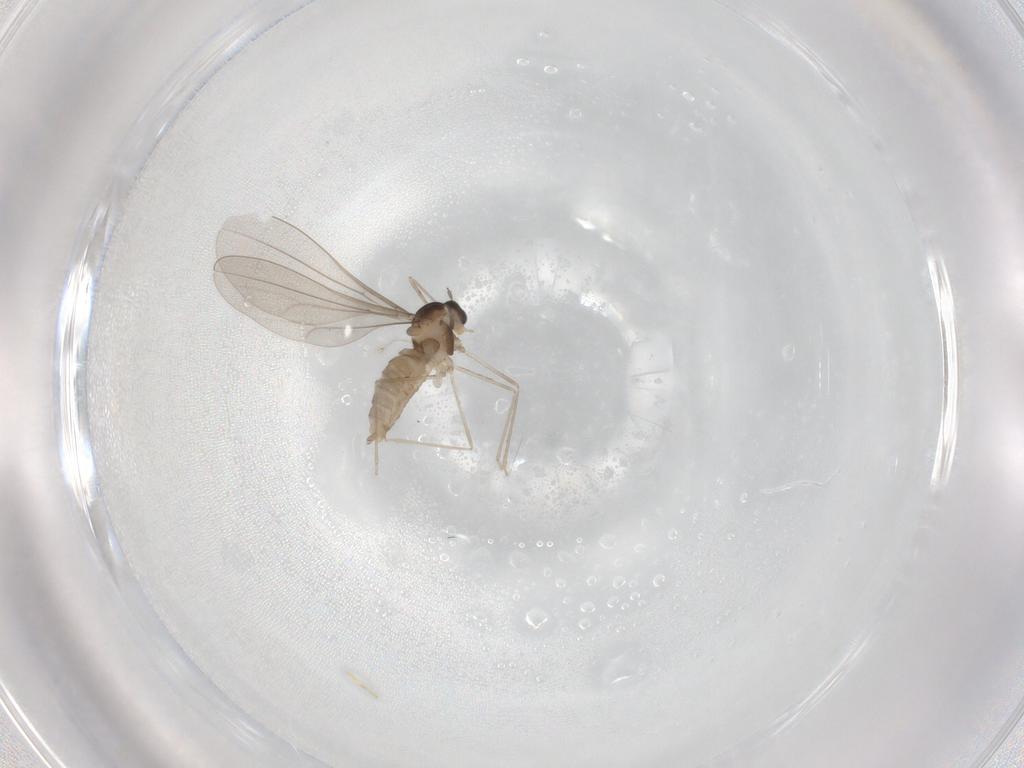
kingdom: Animalia
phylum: Arthropoda
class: Insecta
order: Diptera
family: Cecidomyiidae
